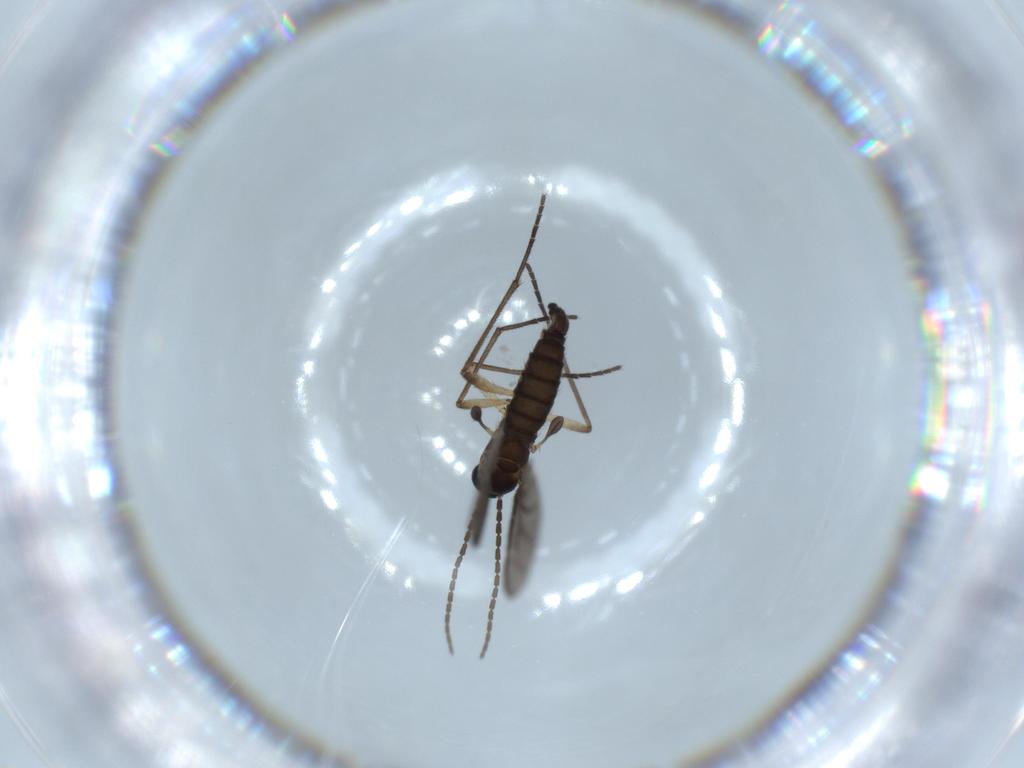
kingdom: Animalia
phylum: Arthropoda
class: Insecta
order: Diptera
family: Sciaridae
